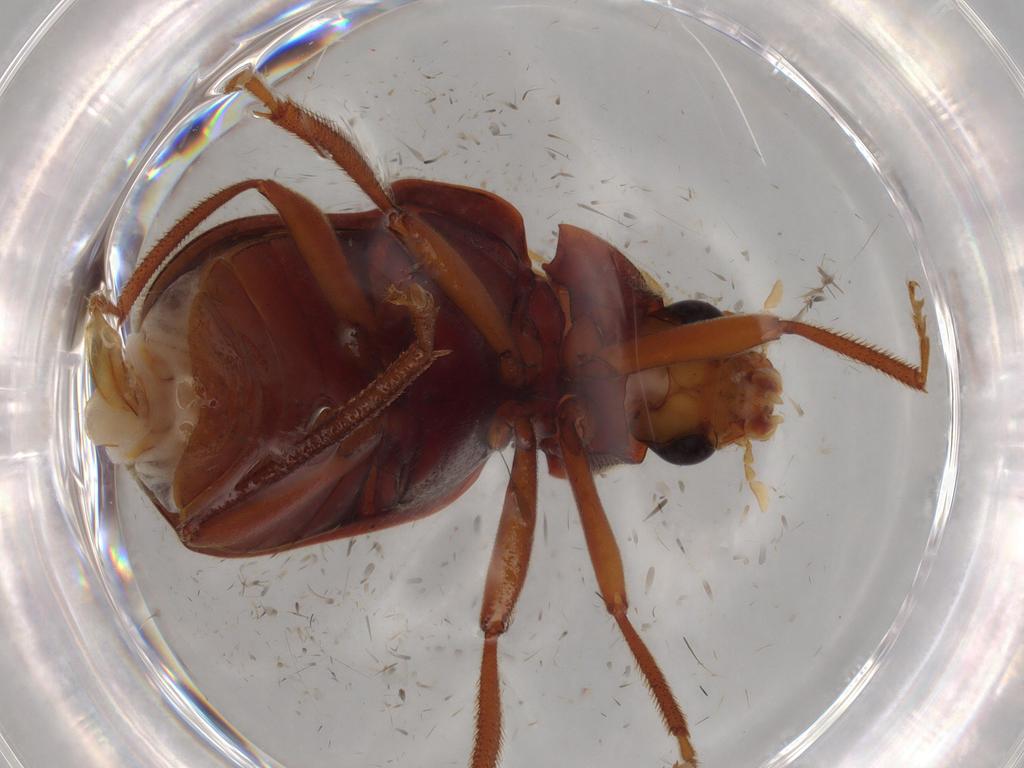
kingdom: Animalia
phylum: Arthropoda
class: Insecta
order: Coleoptera
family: Ptilodactylidae
